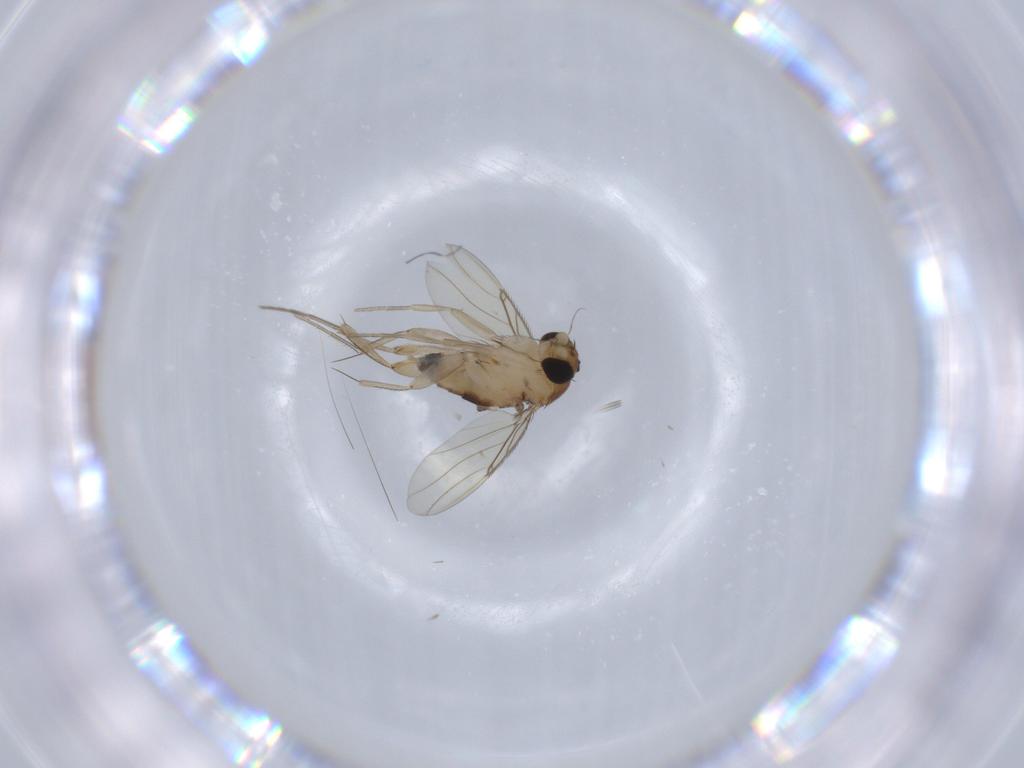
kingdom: Animalia
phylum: Arthropoda
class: Insecta
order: Diptera
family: Phoridae
